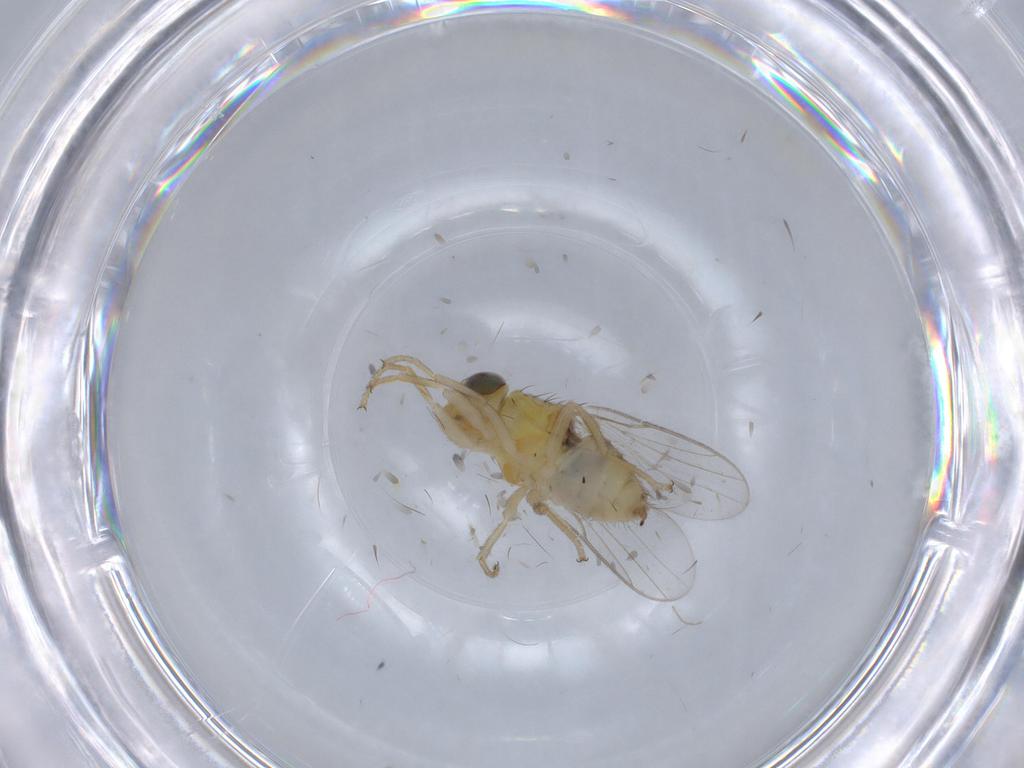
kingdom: Animalia
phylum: Arthropoda
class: Insecta
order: Diptera
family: Chloropidae
